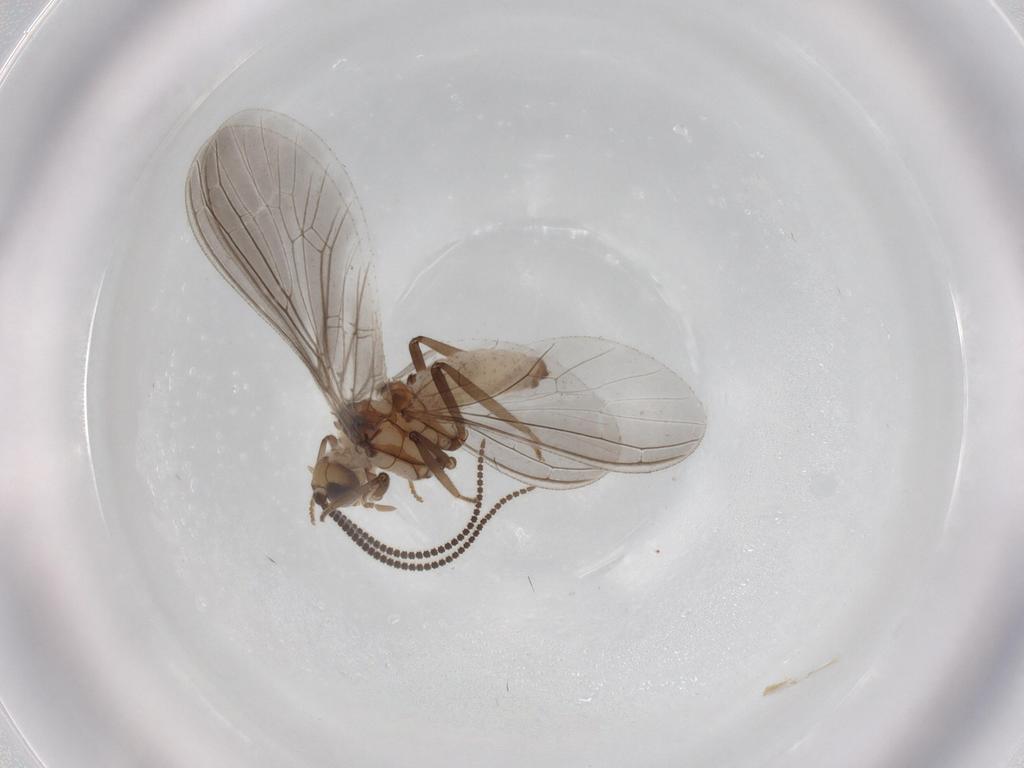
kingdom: Animalia
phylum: Arthropoda
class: Insecta
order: Neuroptera
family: Coniopterygidae
